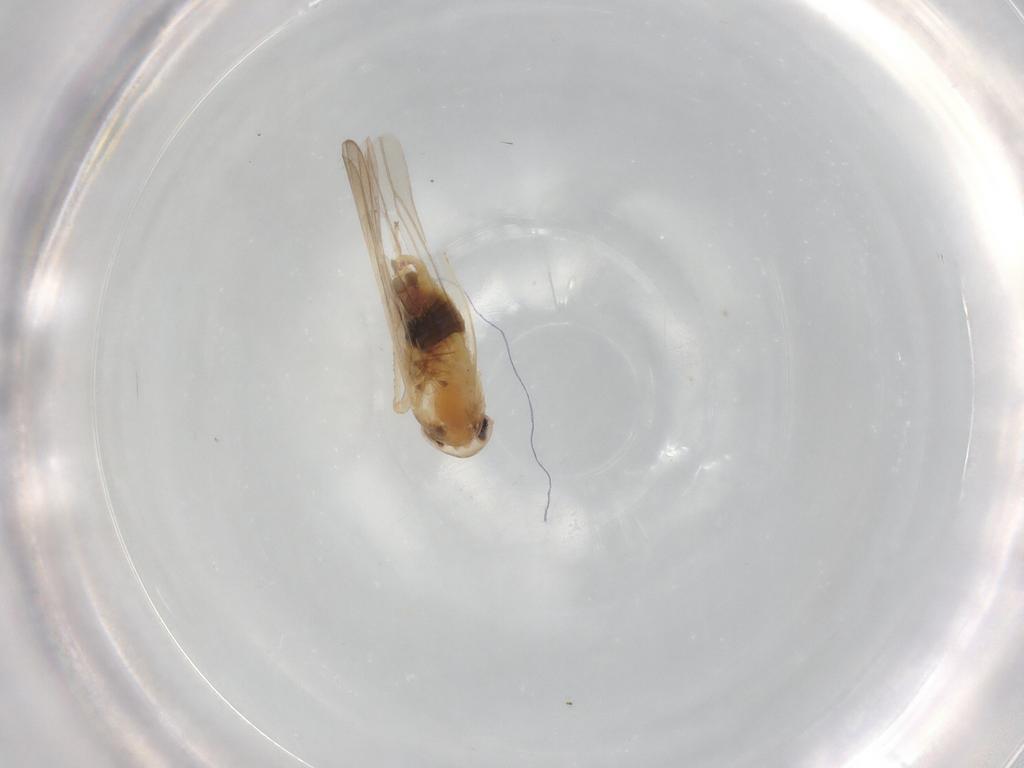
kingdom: Animalia
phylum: Arthropoda
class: Insecta
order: Hemiptera
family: Cicadellidae
